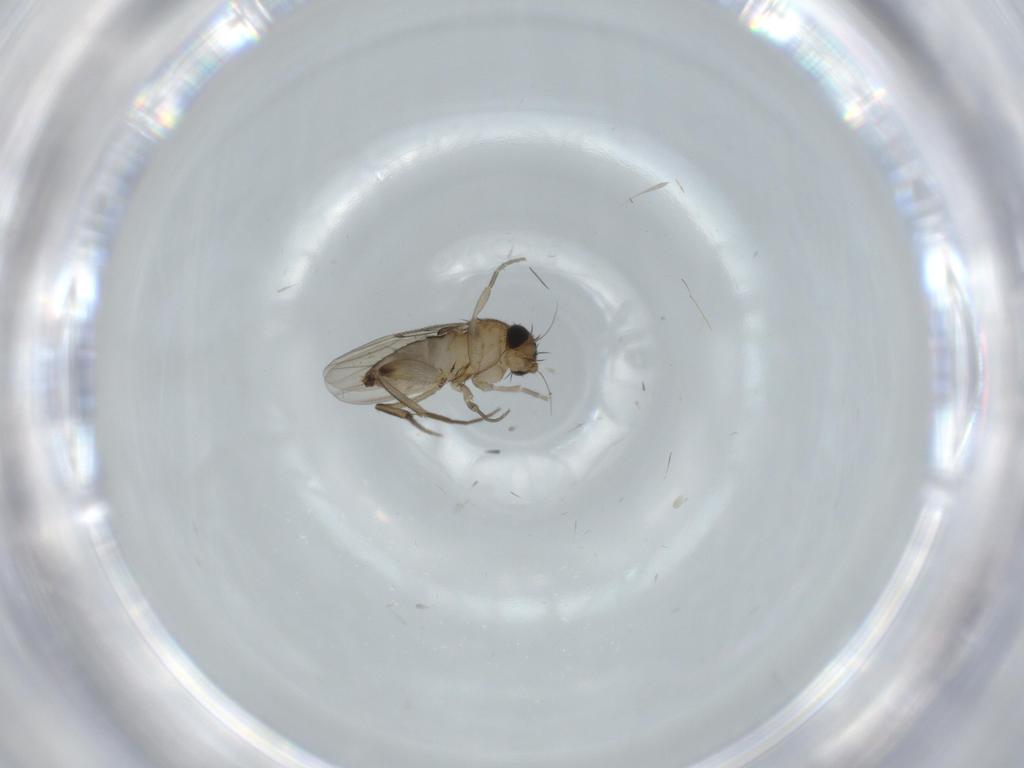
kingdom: Animalia
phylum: Arthropoda
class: Insecta
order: Diptera
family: Phoridae
